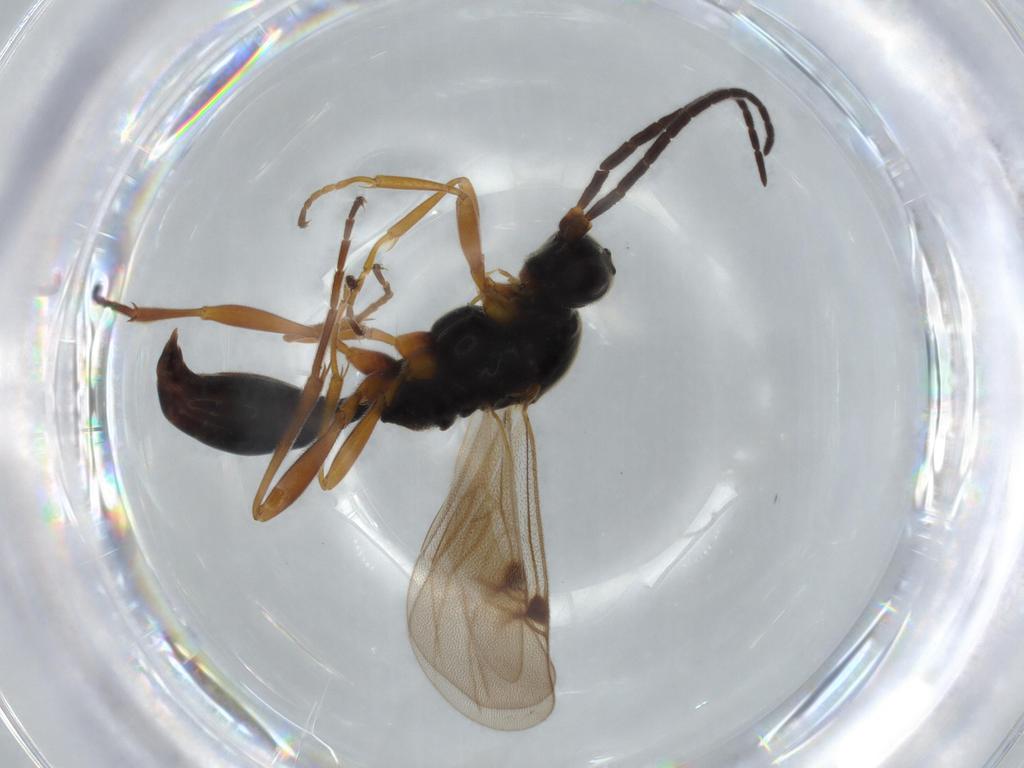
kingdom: Animalia
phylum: Arthropoda
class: Insecta
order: Hymenoptera
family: Proctotrupidae
